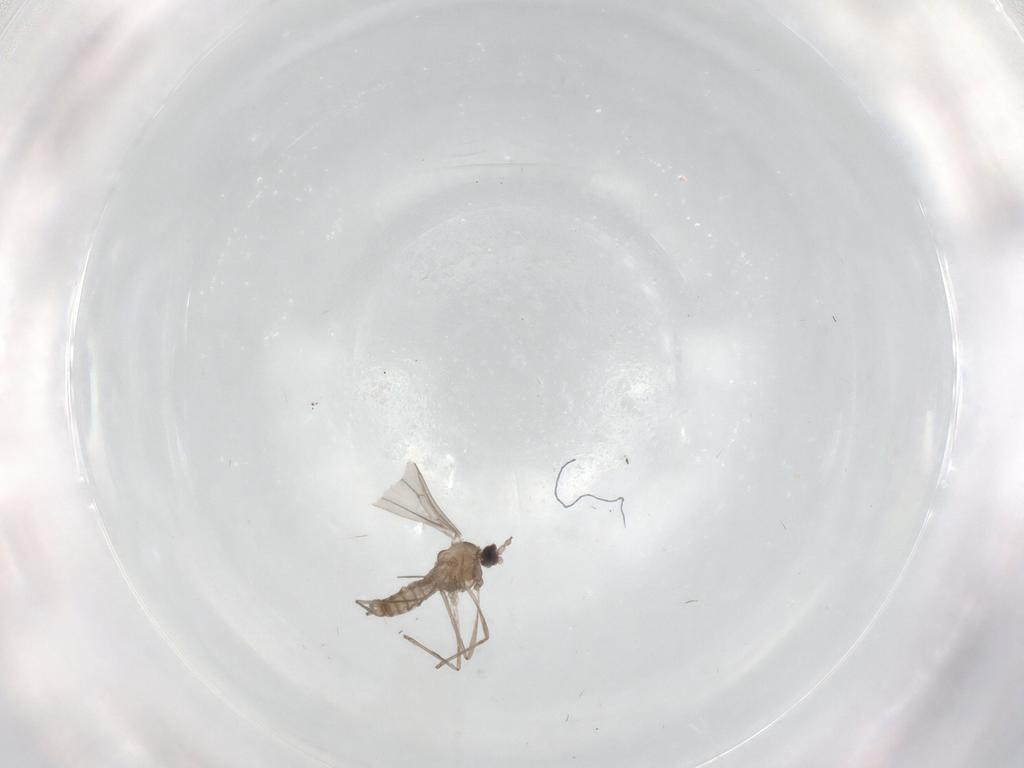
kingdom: Animalia
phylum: Arthropoda
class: Insecta
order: Diptera
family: Cecidomyiidae
